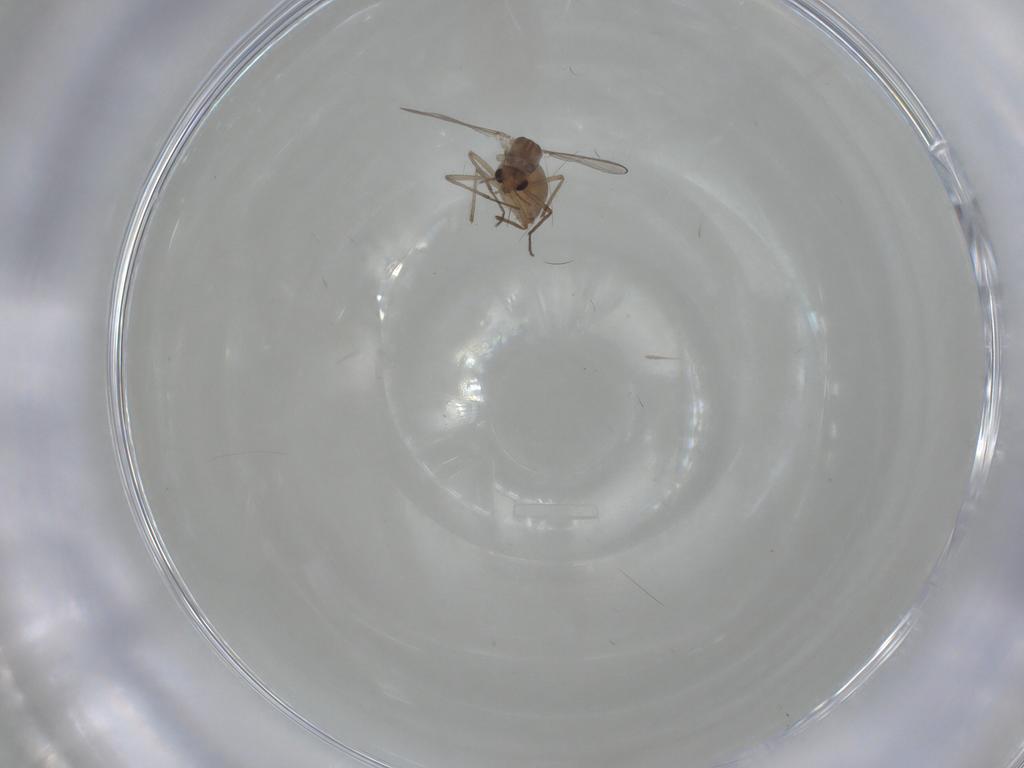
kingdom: Animalia
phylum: Arthropoda
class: Insecta
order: Diptera
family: Chironomidae
